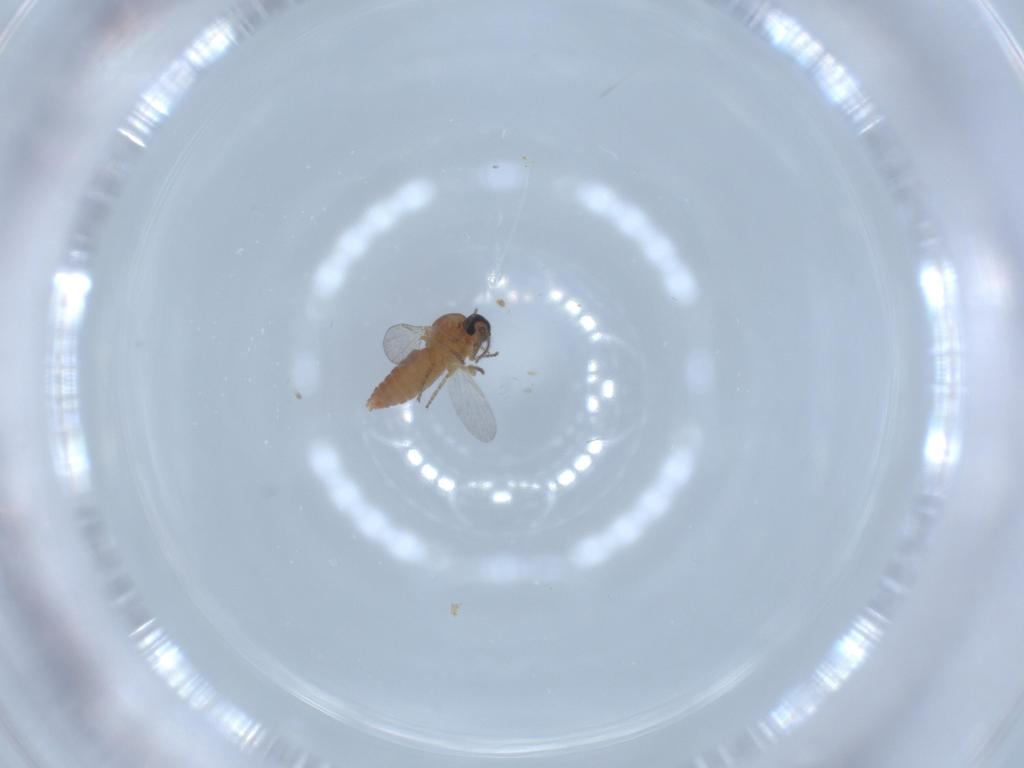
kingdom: Animalia
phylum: Arthropoda
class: Insecta
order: Diptera
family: Ceratopogonidae
